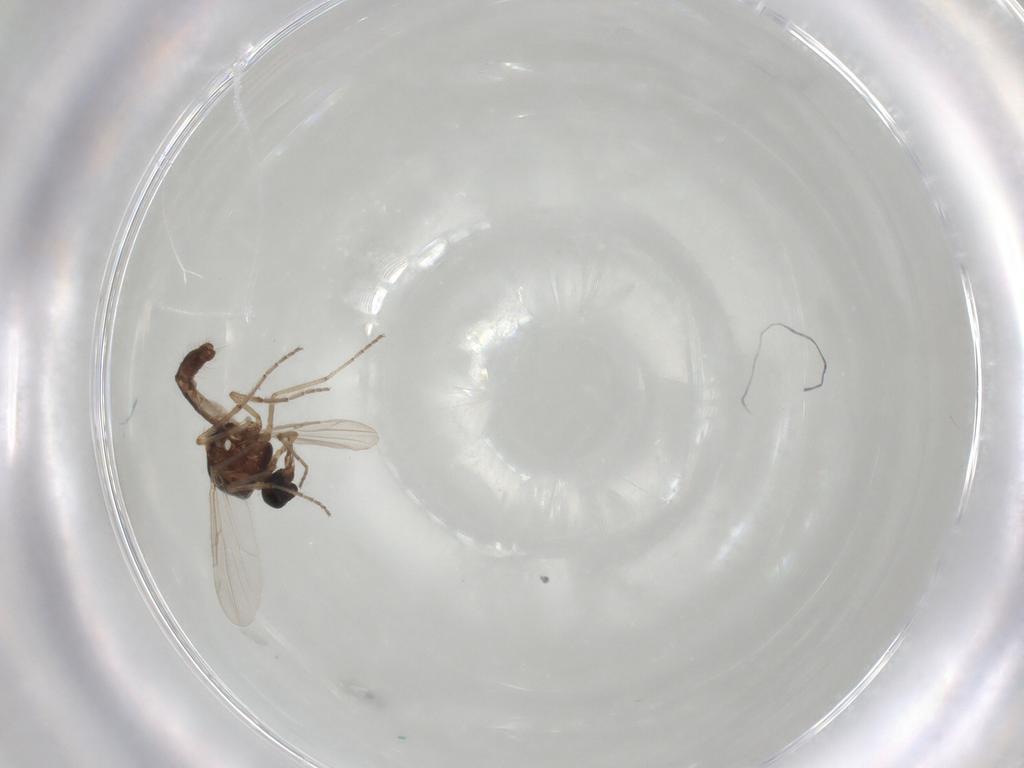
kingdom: Animalia
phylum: Arthropoda
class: Insecta
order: Diptera
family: Ceratopogonidae
